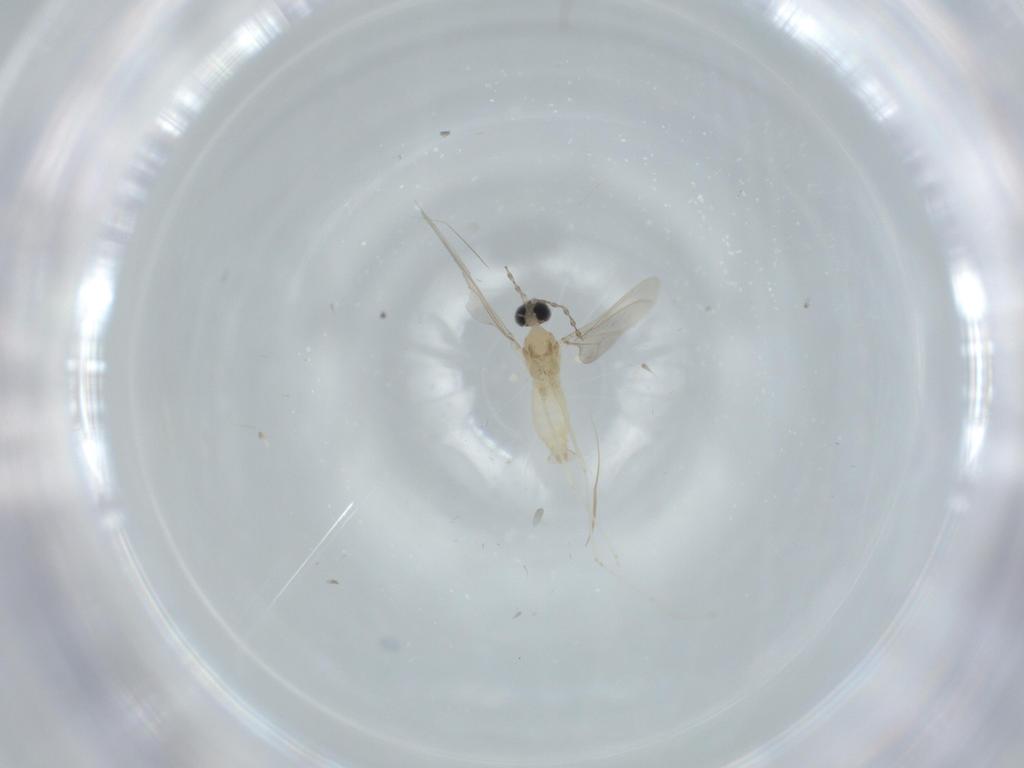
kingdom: Animalia
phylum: Arthropoda
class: Insecta
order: Diptera
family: Cecidomyiidae
